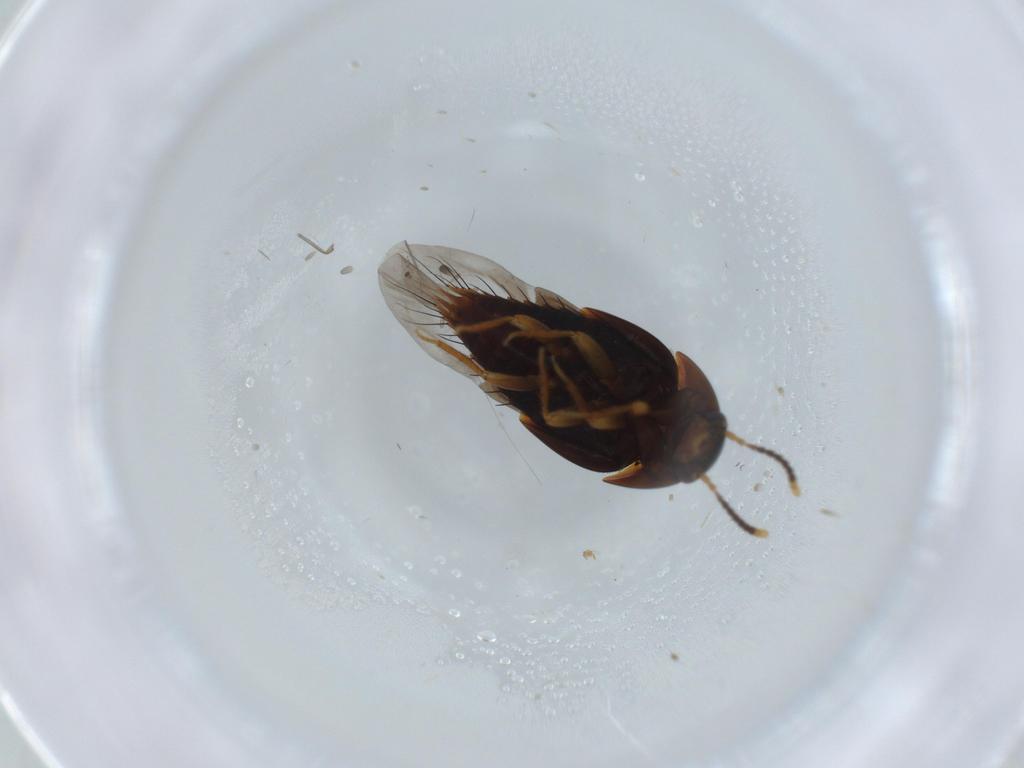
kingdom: Animalia
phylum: Arthropoda
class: Insecta
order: Coleoptera
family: Staphylinidae
